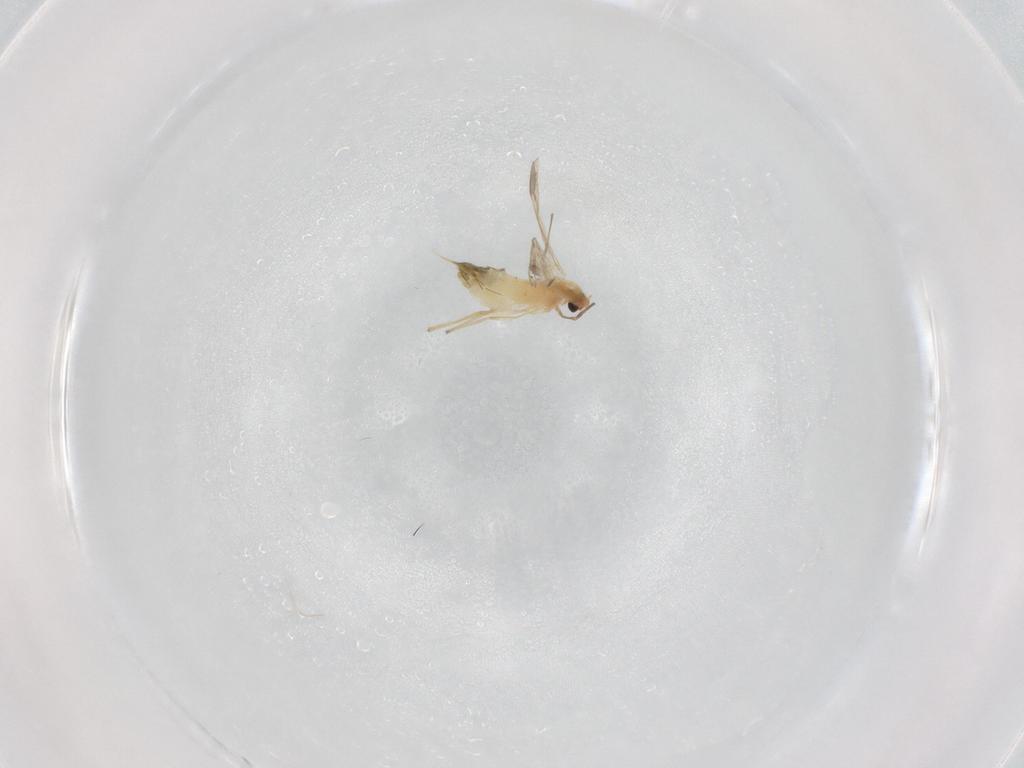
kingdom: Animalia
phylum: Arthropoda
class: Insecta
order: Diptera
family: Chironomidae
